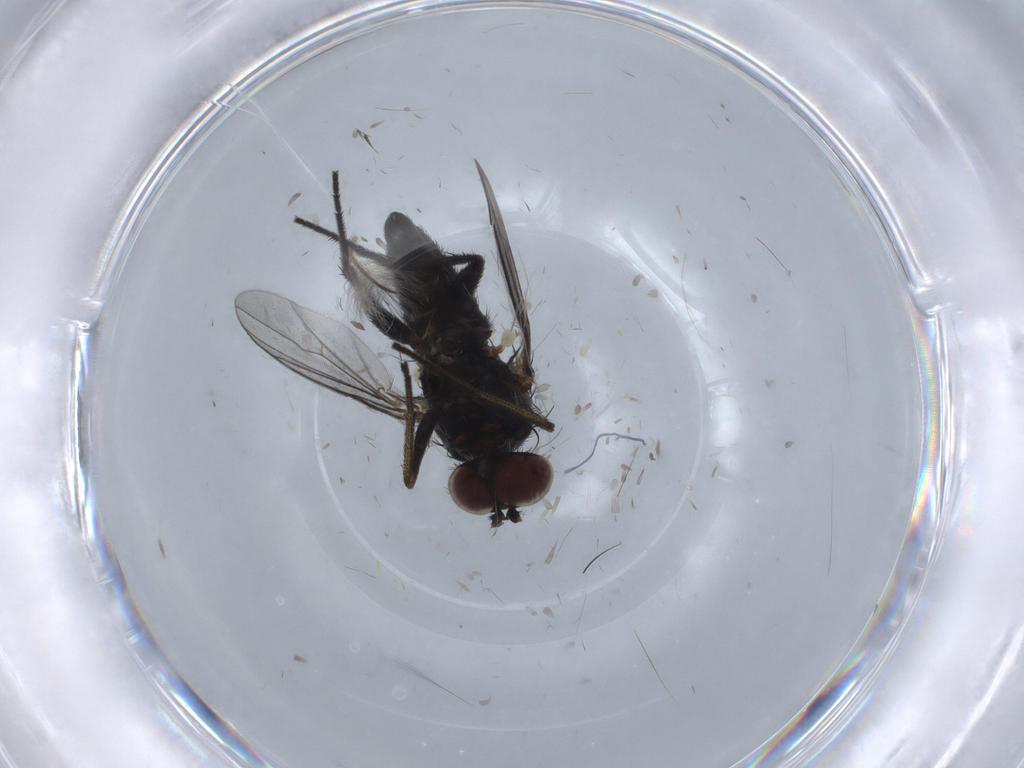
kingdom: Animalia
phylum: Arthropoda
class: Insecta
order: Diptera
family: Dolichopodidae
